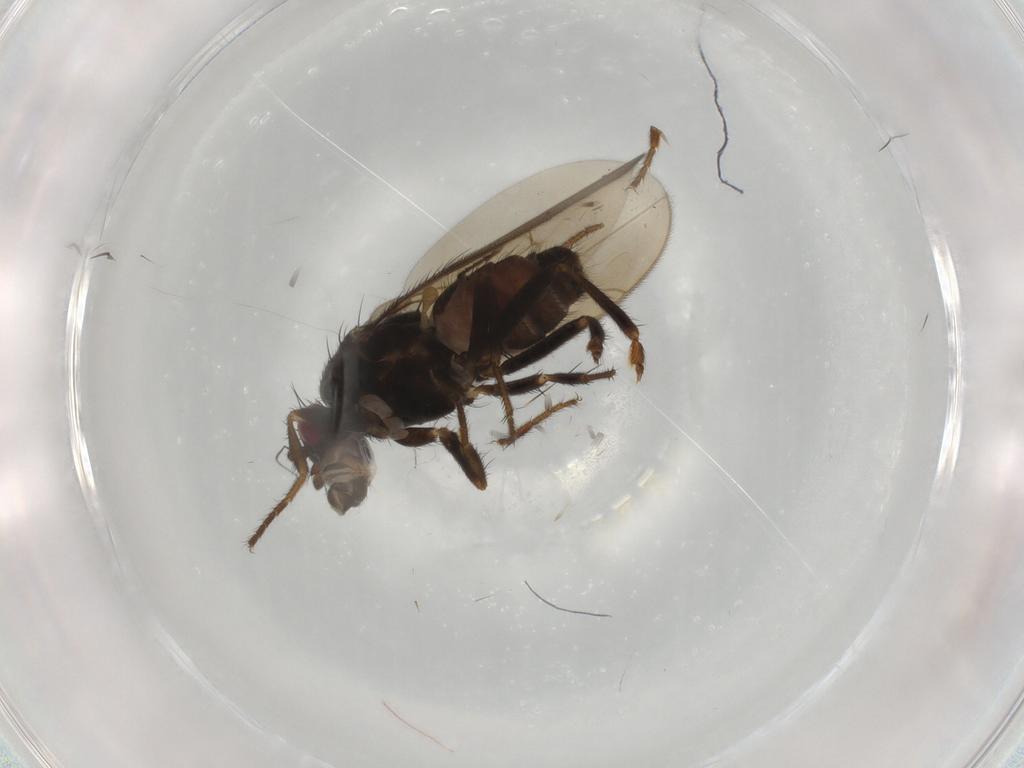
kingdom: Animalia
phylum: Arthropoda
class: Insecta
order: Diptera
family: Sphaeroceridae
